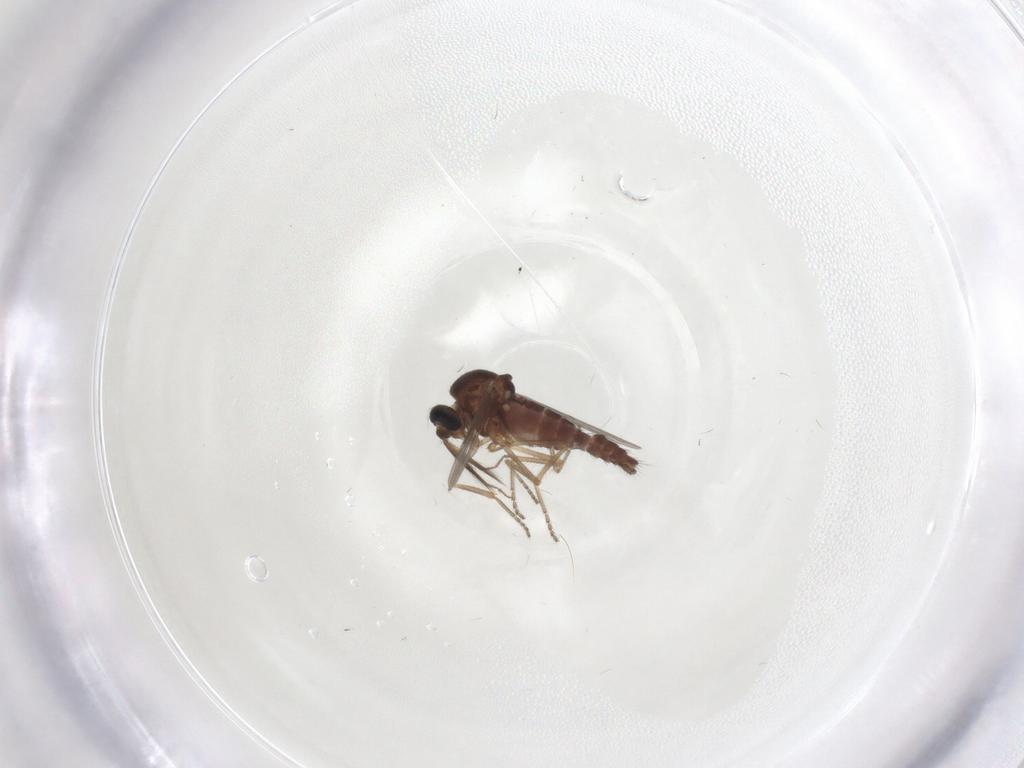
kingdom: Animalia
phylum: Arthropoda
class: Insecta
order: Diptera
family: Ceratopogonidae
